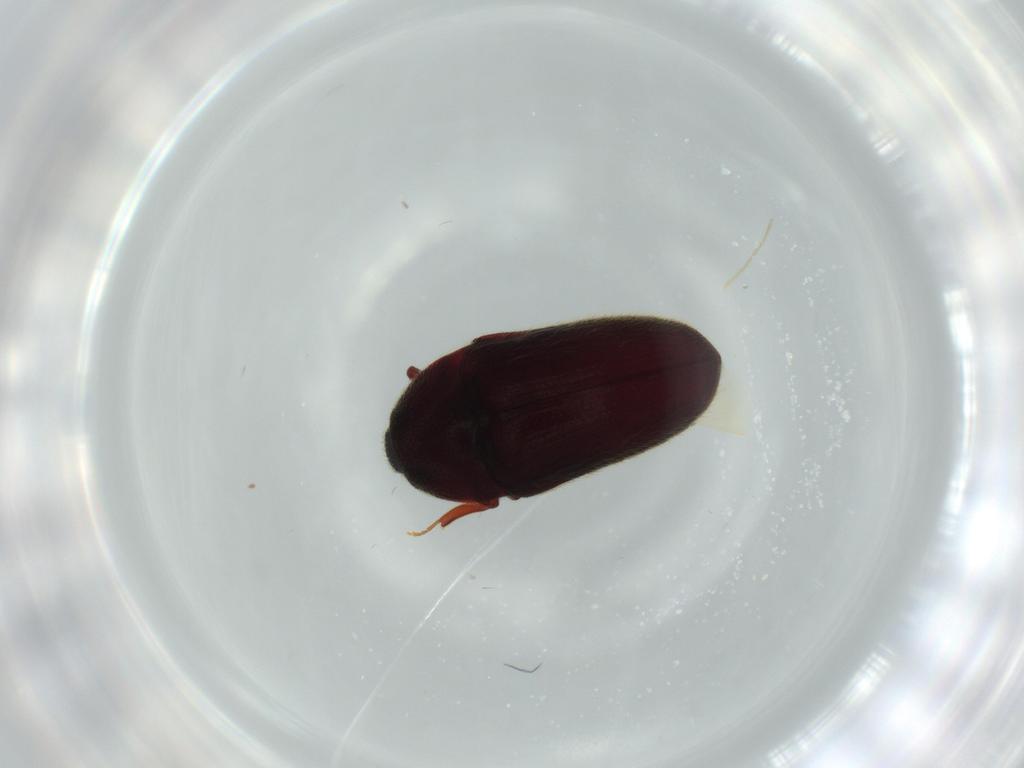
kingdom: Animalia
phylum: Arthropoda
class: Insecta
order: Coleoptera
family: Throscidae
